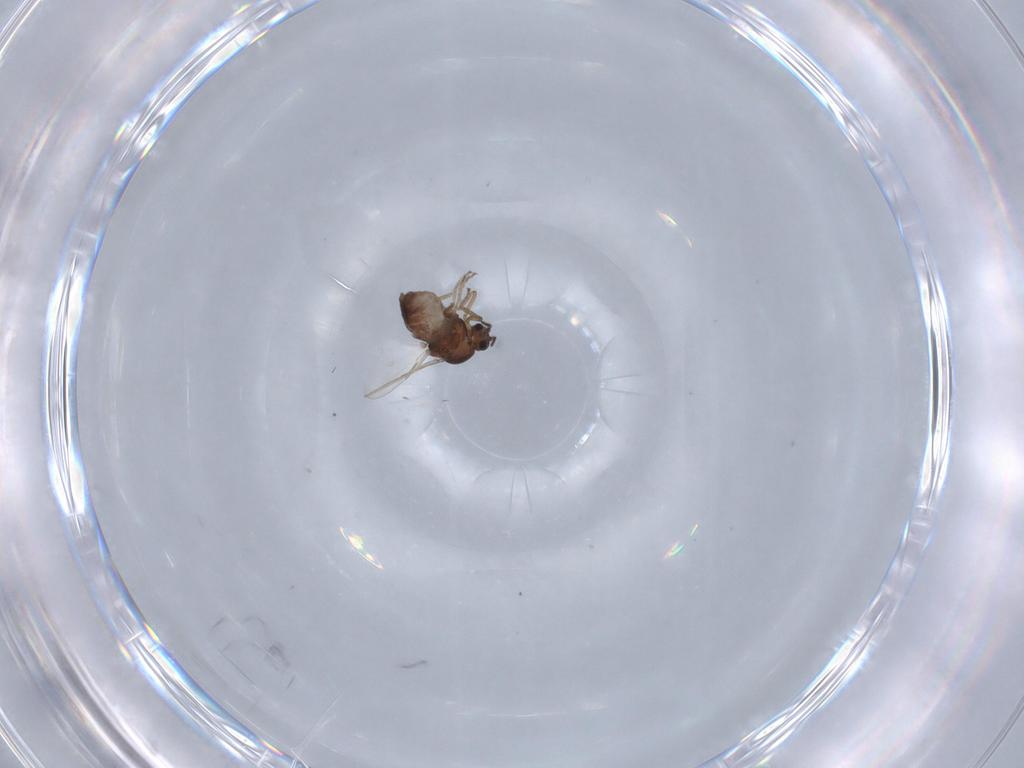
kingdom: Animalia
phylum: Arthropoda
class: Insecta
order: Diptera
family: Ceratopogonidae
